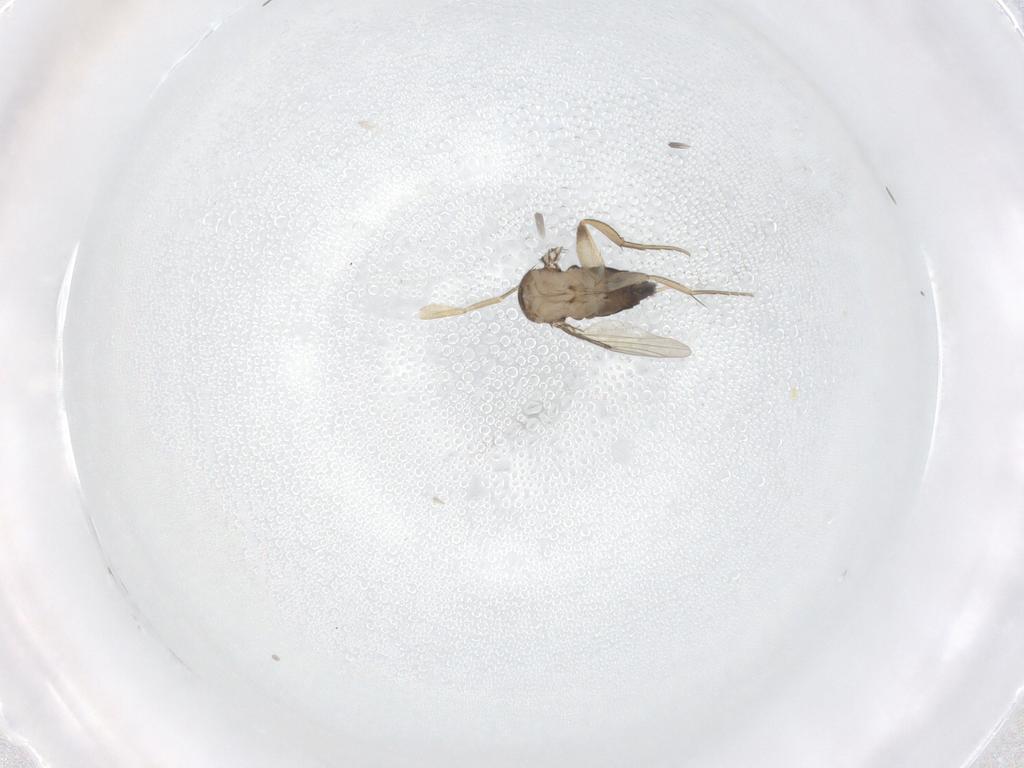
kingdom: Animalia
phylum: Arthropoda
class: Insecta
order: Diptera
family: Phoridae
